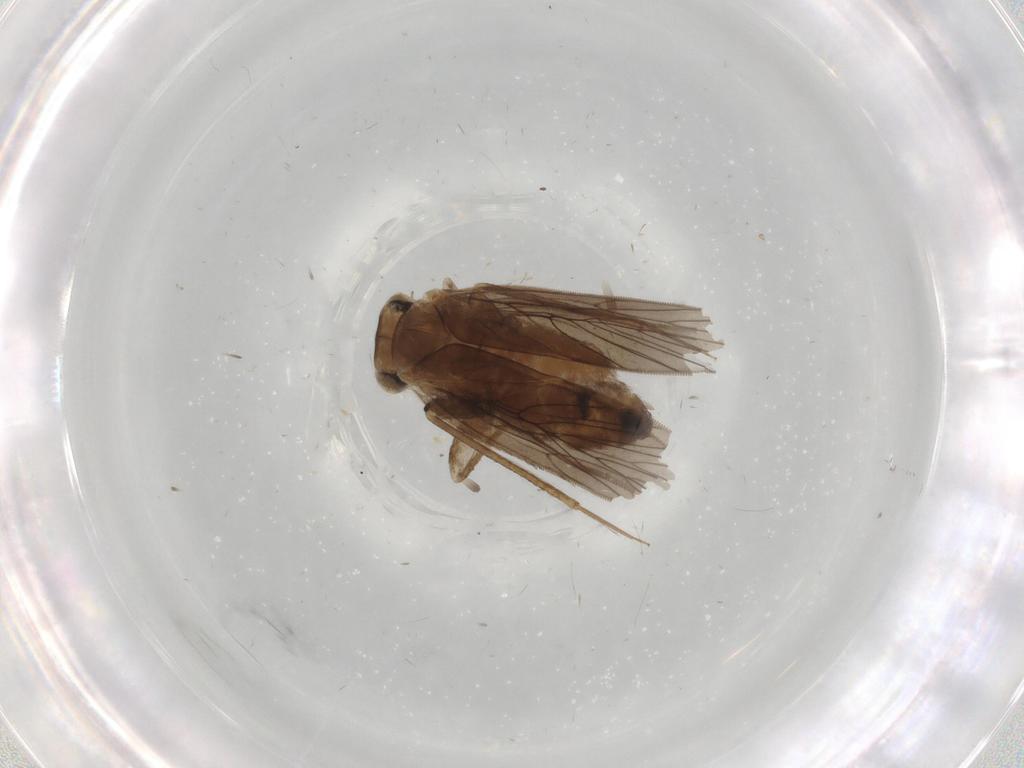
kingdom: Animalia
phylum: Arthropoda
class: Insecta
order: Psocodea
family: Lepidopsocidae
